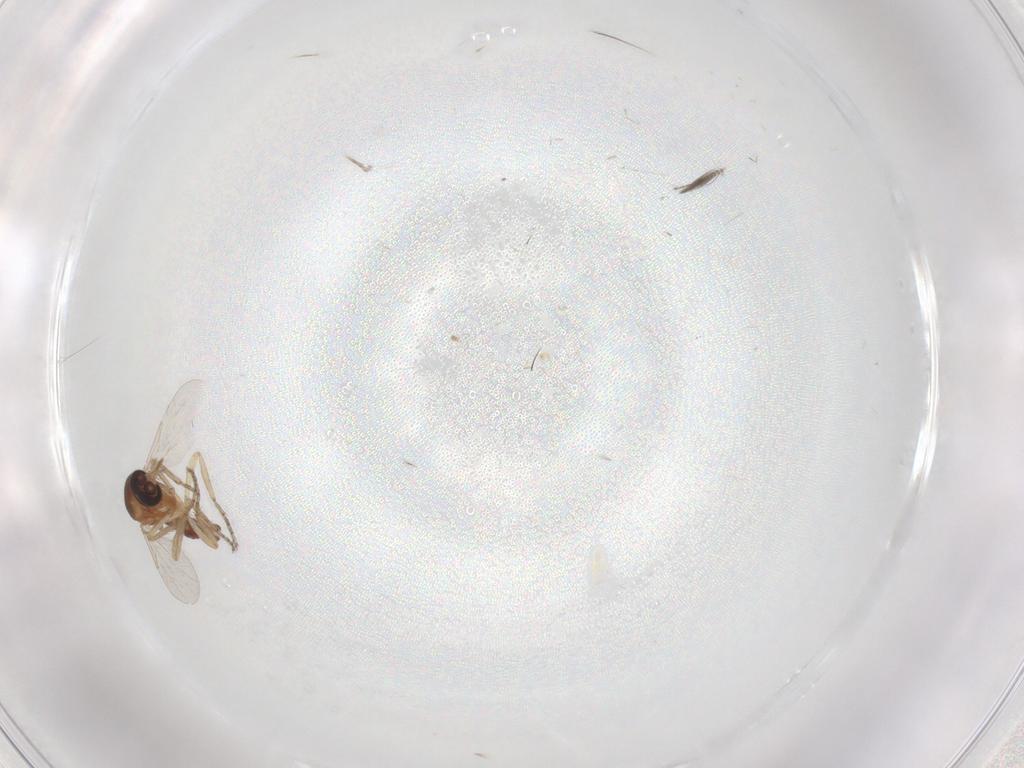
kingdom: Animalia
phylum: Arthropoda
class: Insecta
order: Diptera
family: Ceratopogonidae
